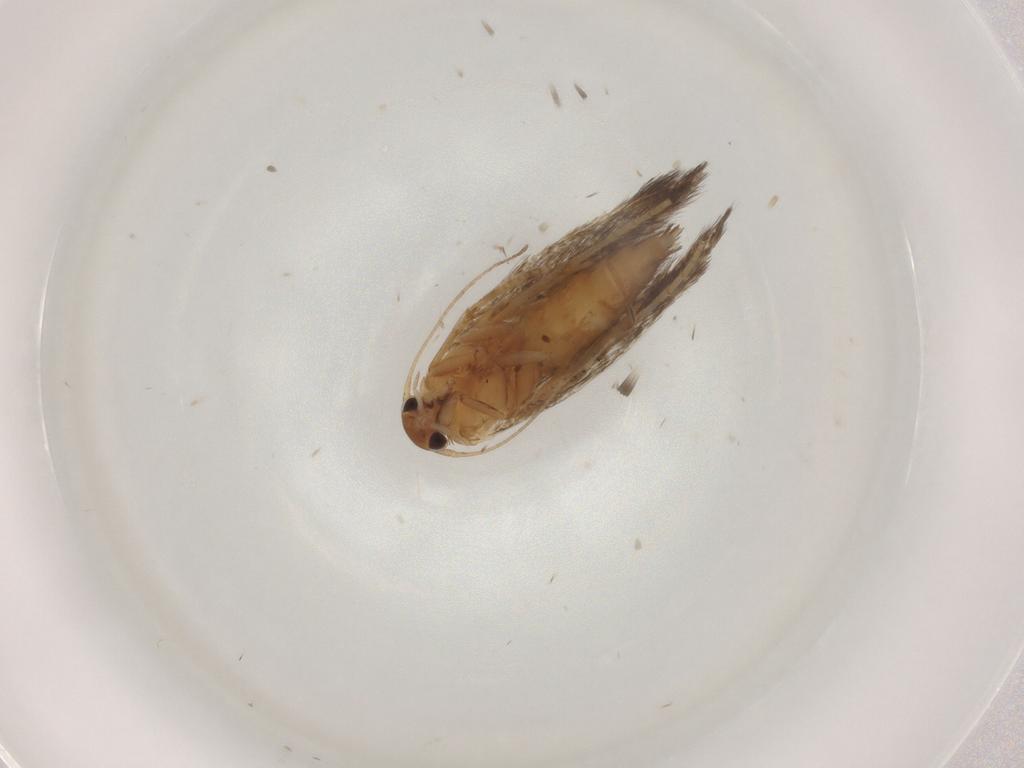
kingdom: Animalia
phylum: Arthropoda
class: Insecta
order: Lepidoptera
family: Elachistidae
